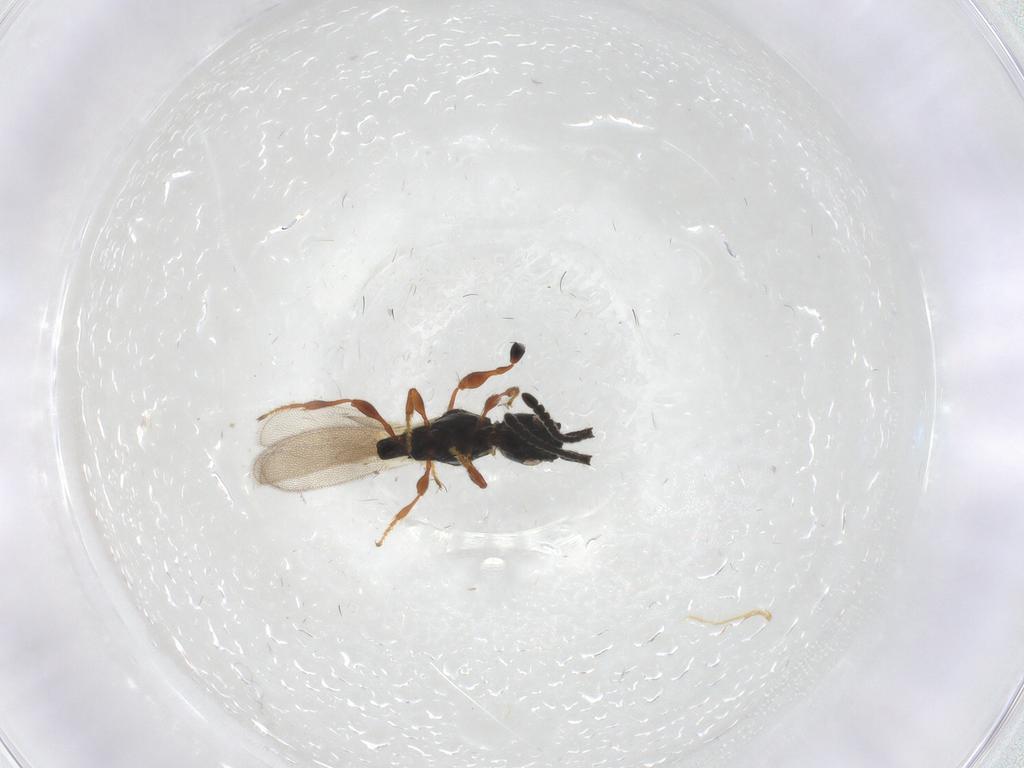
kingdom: Animalia
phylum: Arthropoda
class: Insecta
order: Hymenoptera
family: Diapriidae
